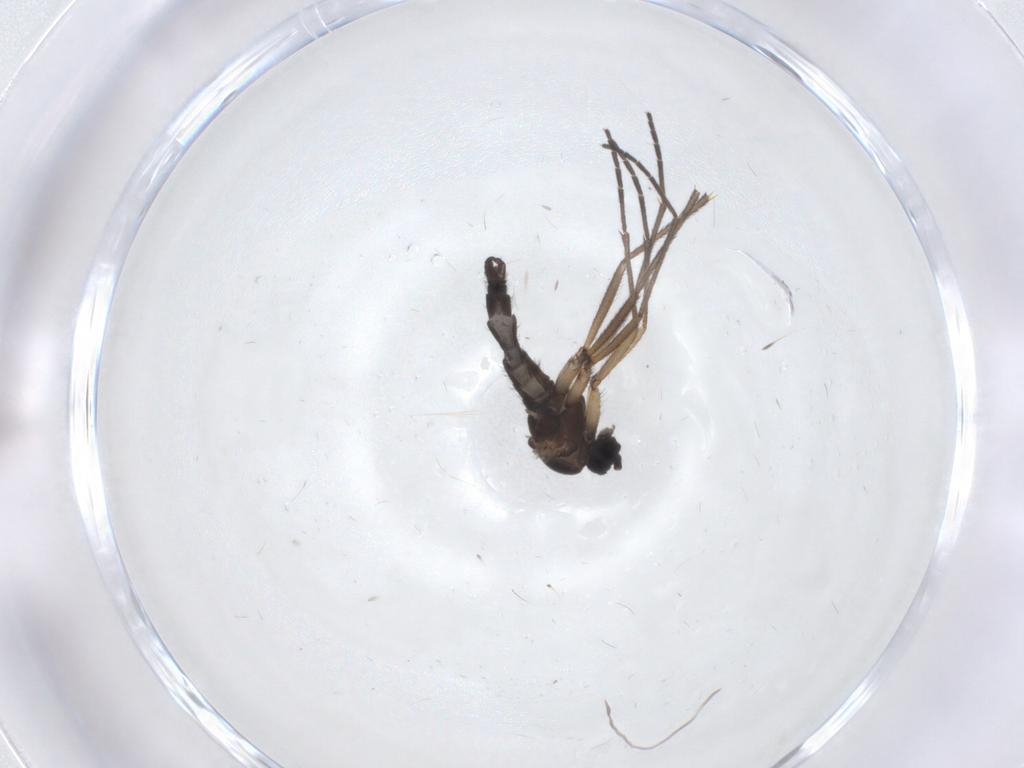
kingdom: Animalia
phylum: Arthropoda
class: Insecta
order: Diptera
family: Sciaridae
